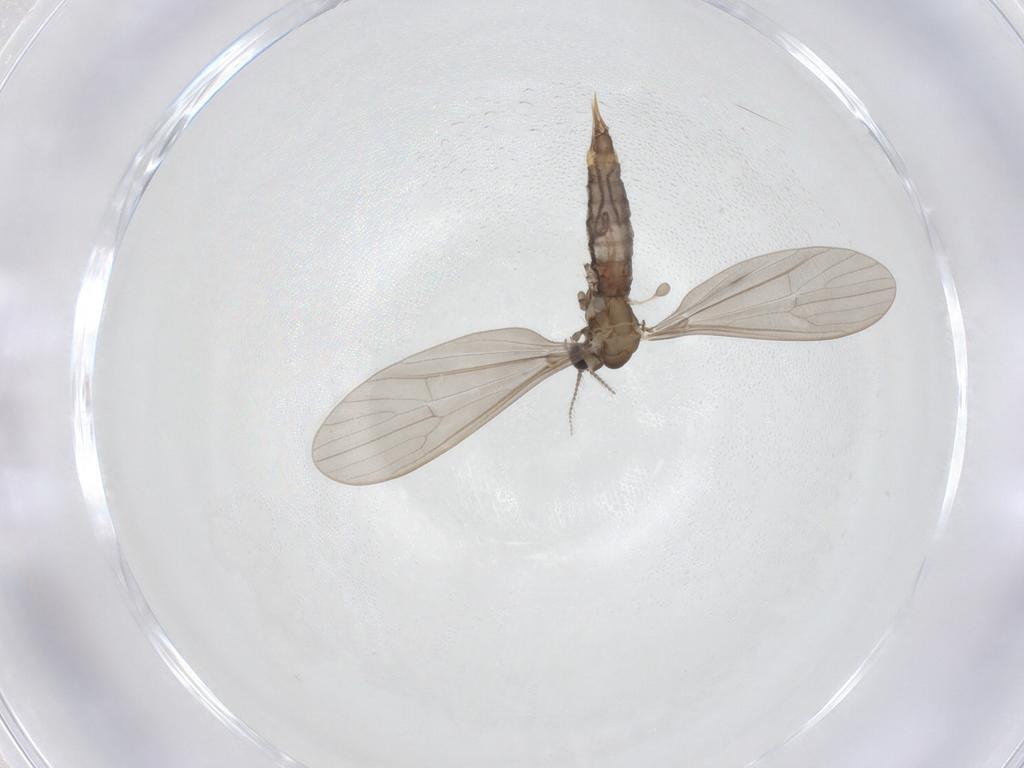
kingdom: Animalia
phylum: Arthropoda
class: Insecta
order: Diptera
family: Limoniidae
